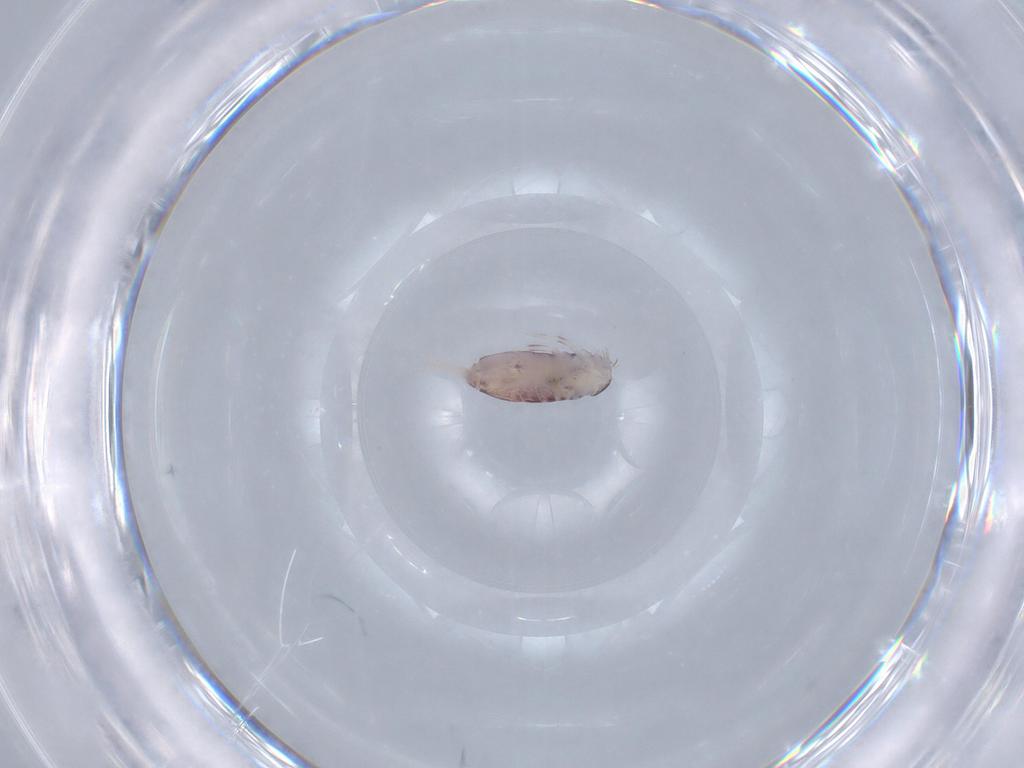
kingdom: Animalia
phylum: Arthropoda
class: Collembola
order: Poduromorpha
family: Hypogastruridae
